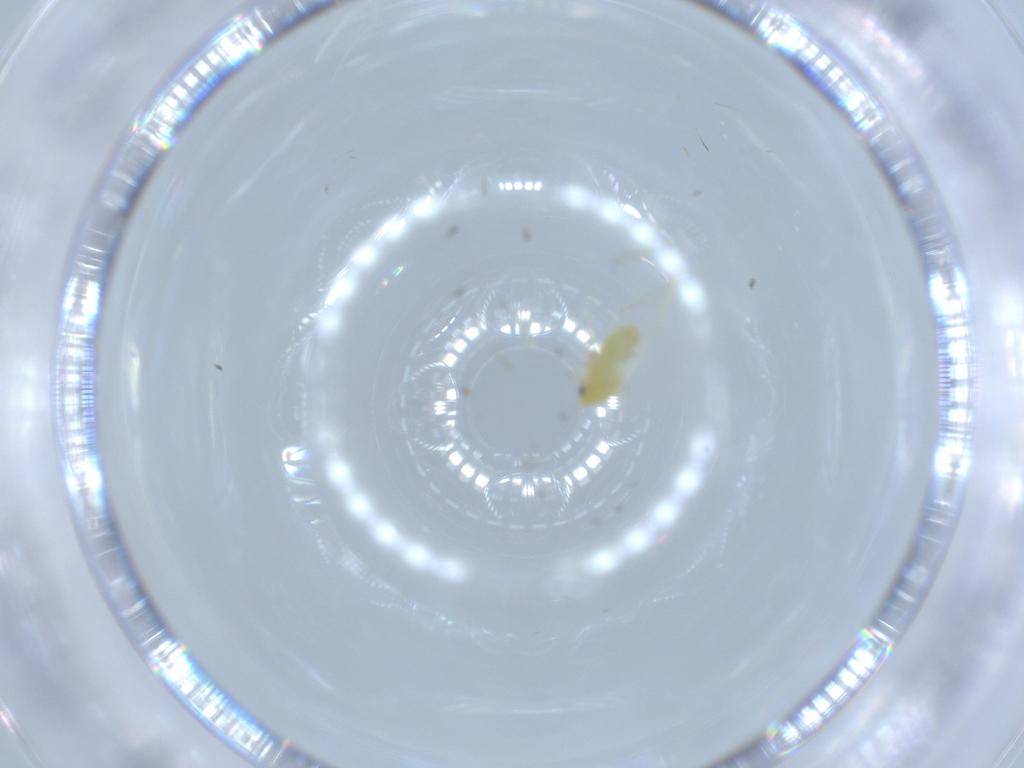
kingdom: Animalia
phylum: Arthropoda
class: Insecta
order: Hemiptera
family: Aleyrodidae
